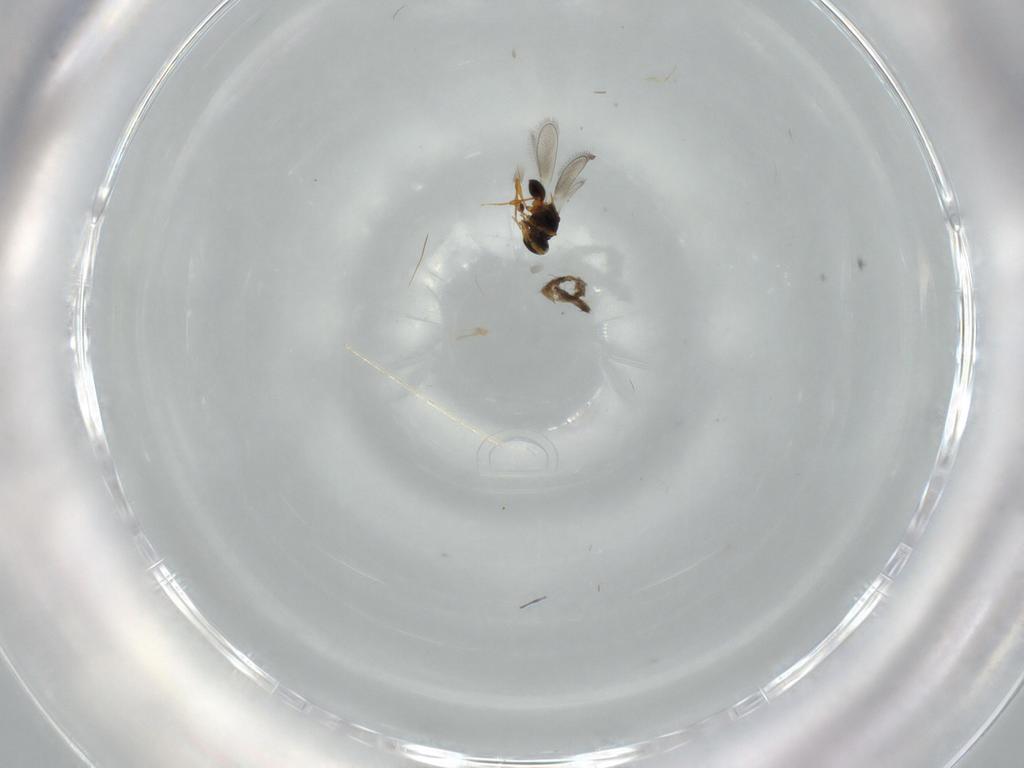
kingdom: Animalia
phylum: Arthropoda
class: Insecta
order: Hymenoptera
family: Platygastridae
